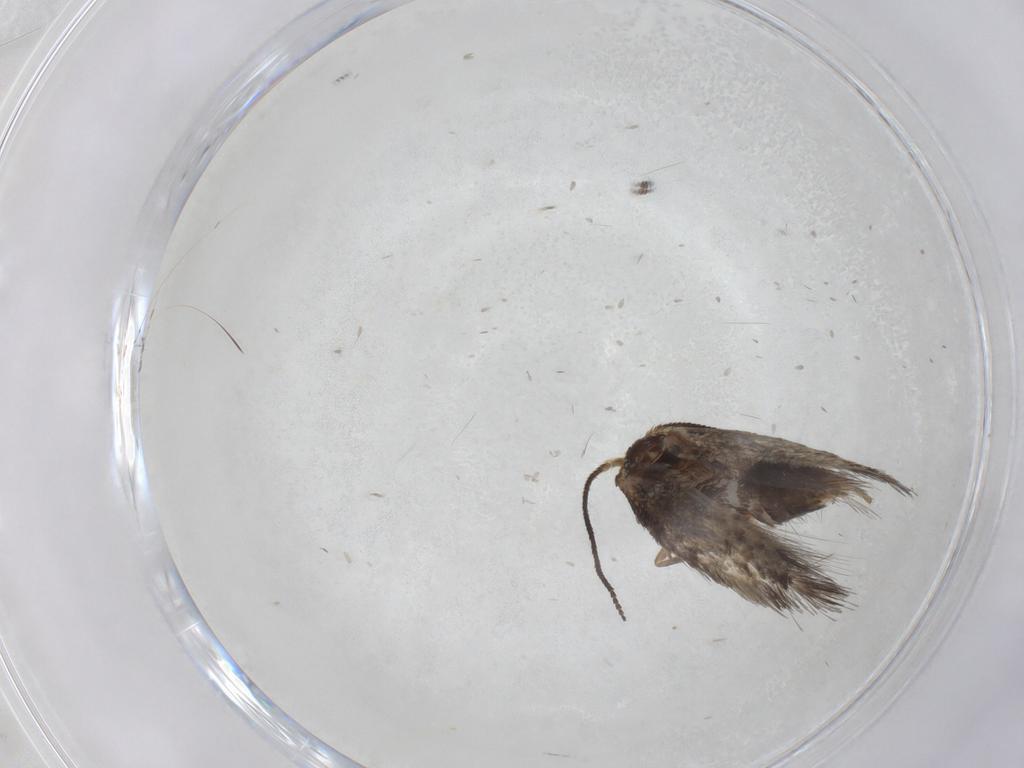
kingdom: Animalia
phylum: Arthropoda
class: Insecta
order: Lepidoptera
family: Nepticulidae
